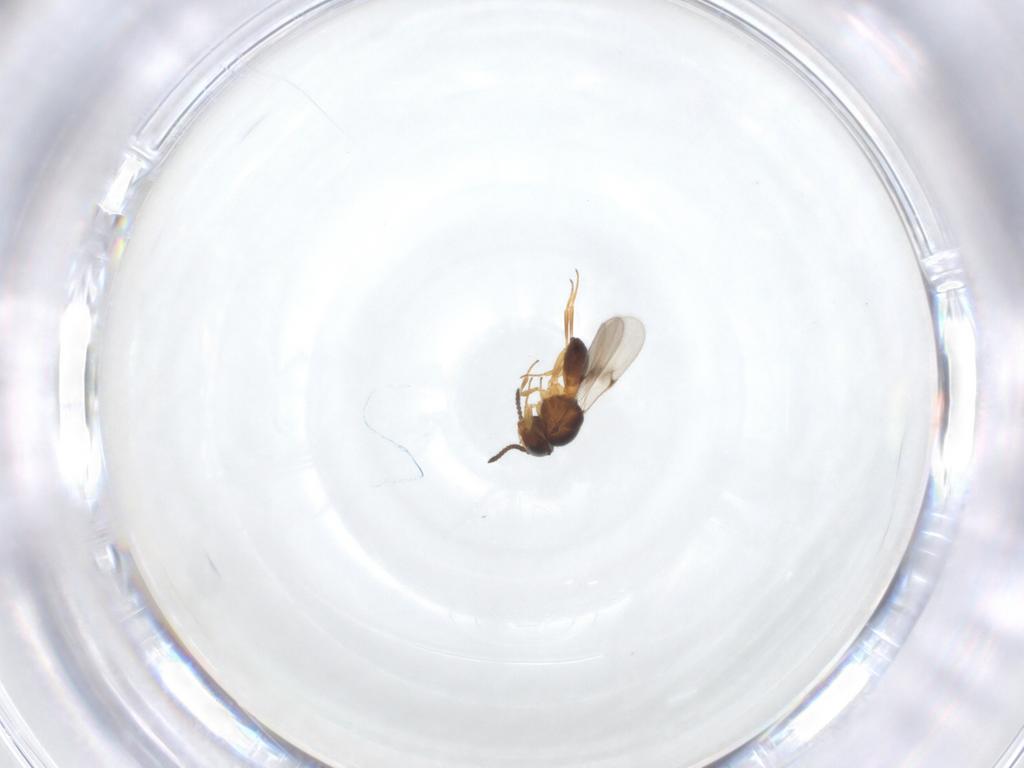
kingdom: Animalia
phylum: Arthropoda
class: Arachnida
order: Araneae
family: Pholcidae
